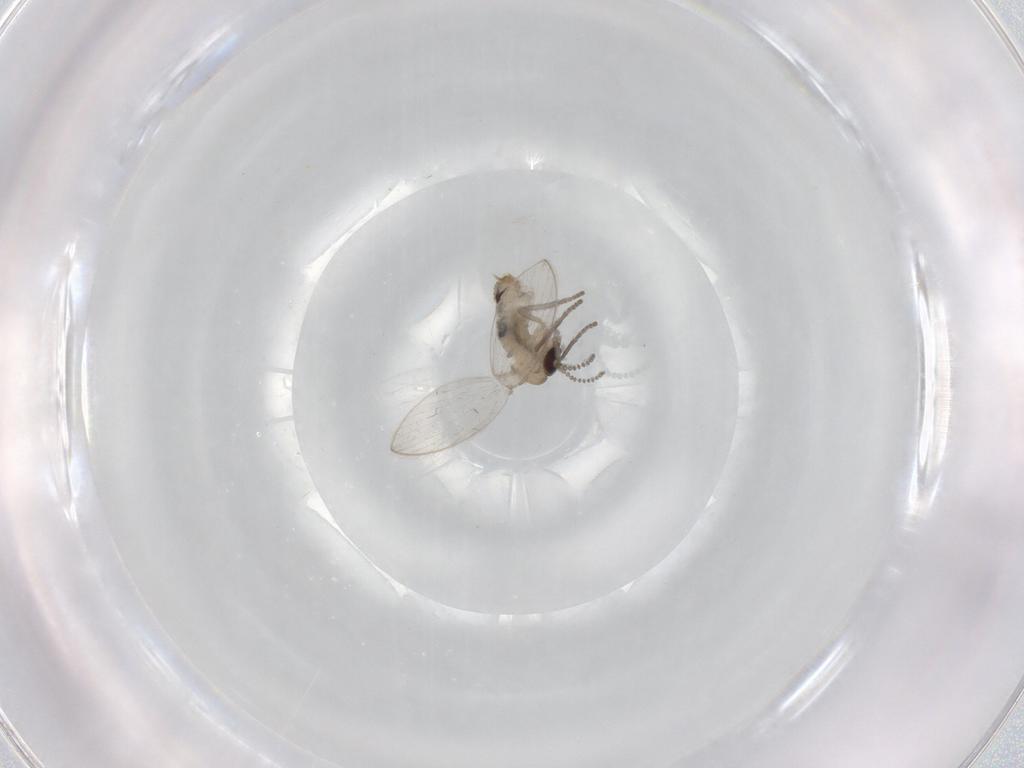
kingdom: Animalia
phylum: Arthropoda
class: Insecta
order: Diptera
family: Psychodidae
